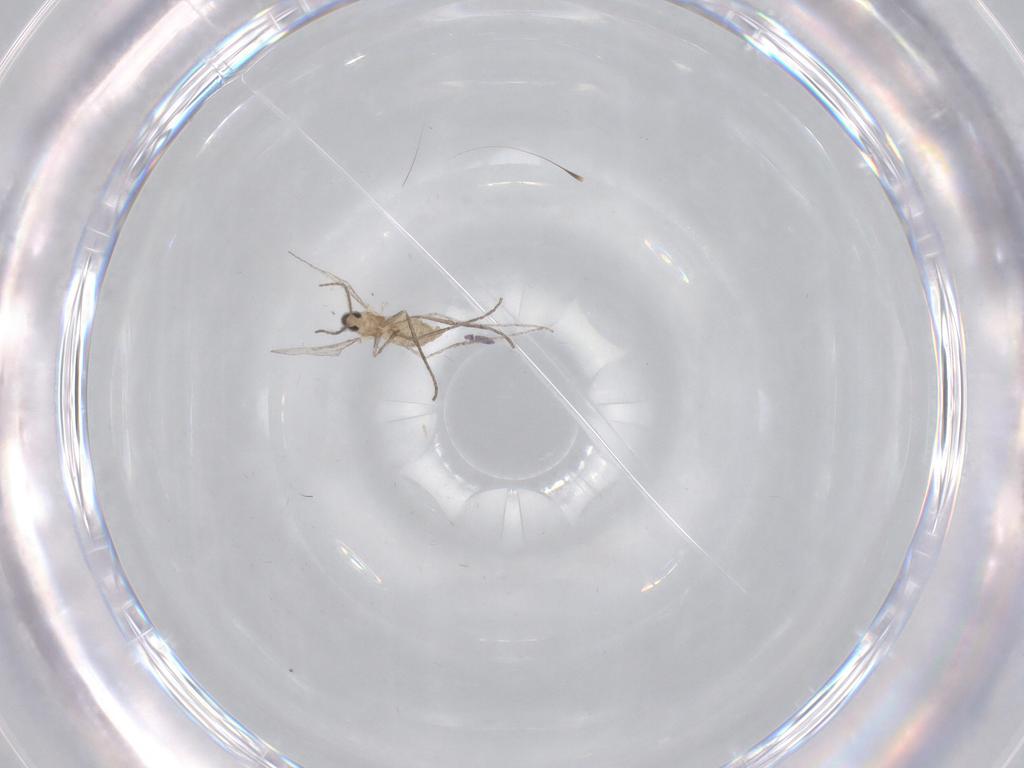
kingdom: Animalia
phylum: Arthropoda
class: Insecta
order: Diptera
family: Cecidomyiidae
